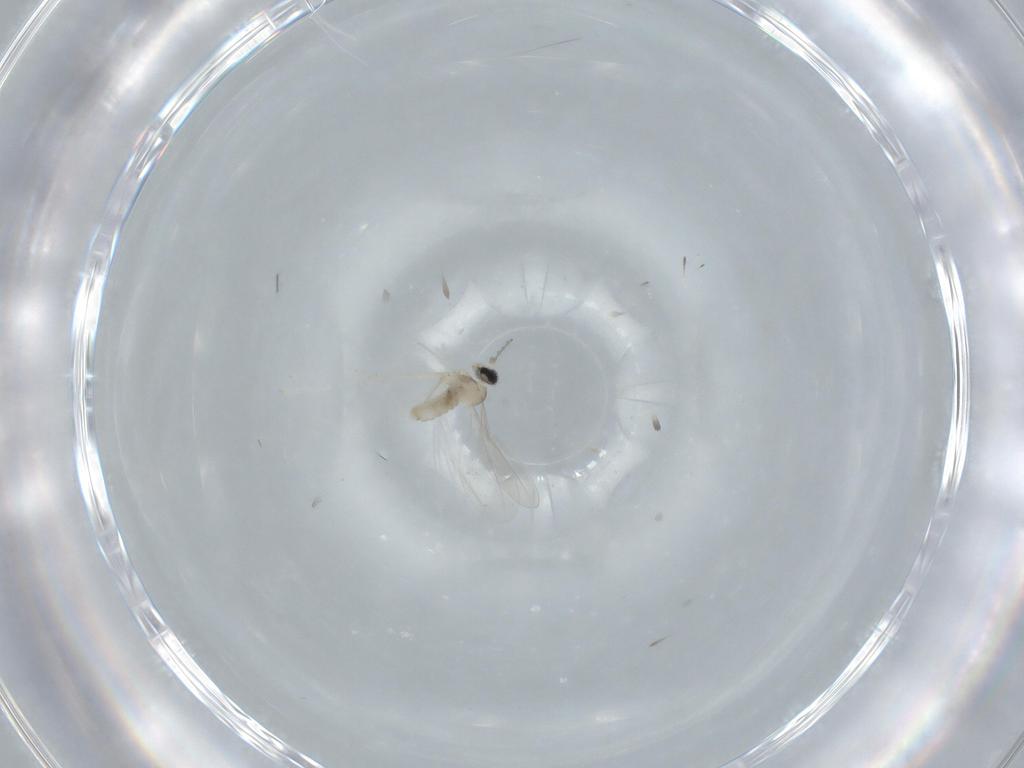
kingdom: Animalia
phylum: Arthropoda
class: Insecta
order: Diptera
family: Cecidomyiidae
